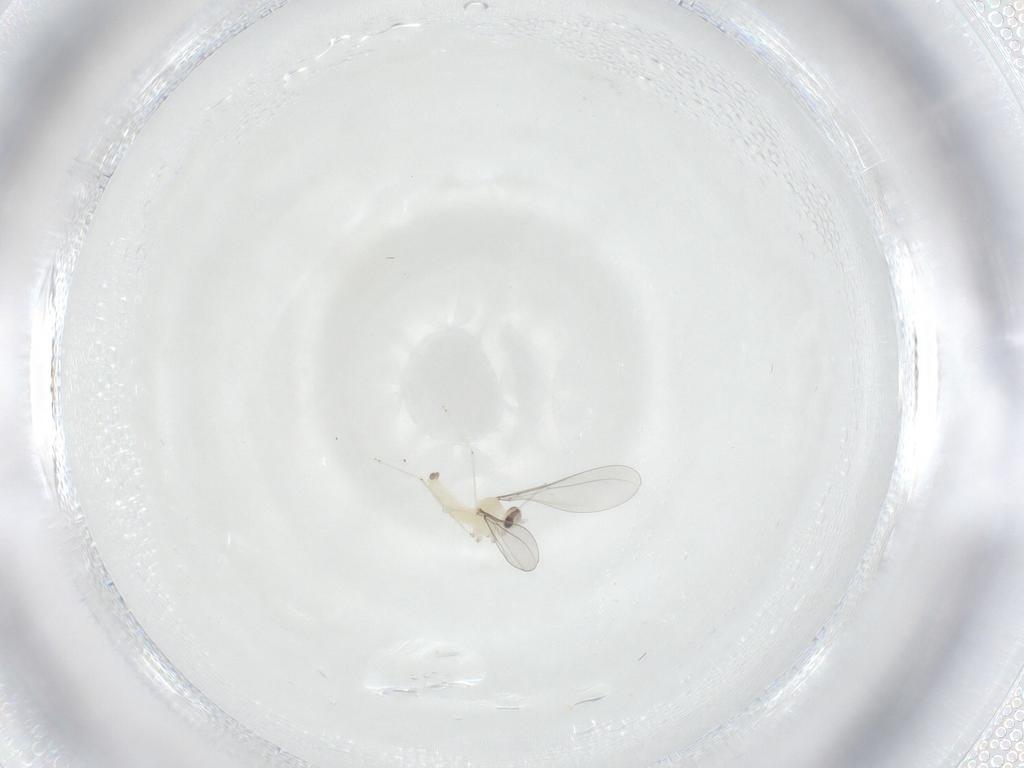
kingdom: Animalia
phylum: Arthropoda
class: Insecta
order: Diptera
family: Cecidomyiidae
